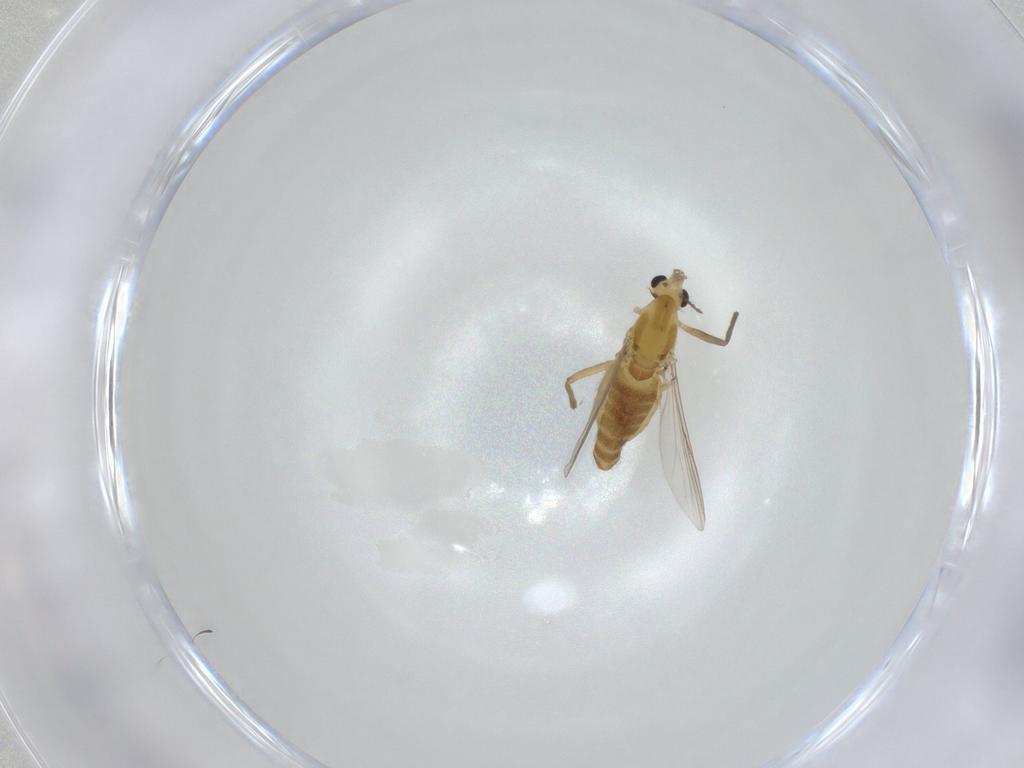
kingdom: Animalia
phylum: Arthropoda
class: Insecta
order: Diptera
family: Chironomidae
